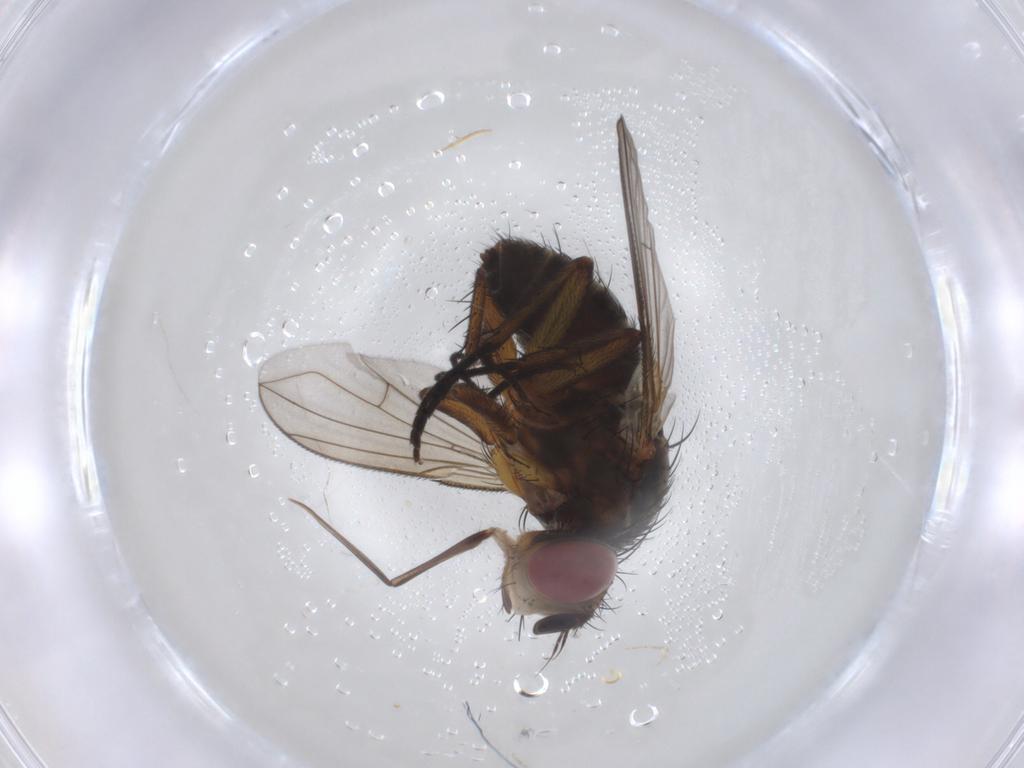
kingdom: Animalia
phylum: Arthropoda
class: Insecta
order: Diptera
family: Tachinidae
